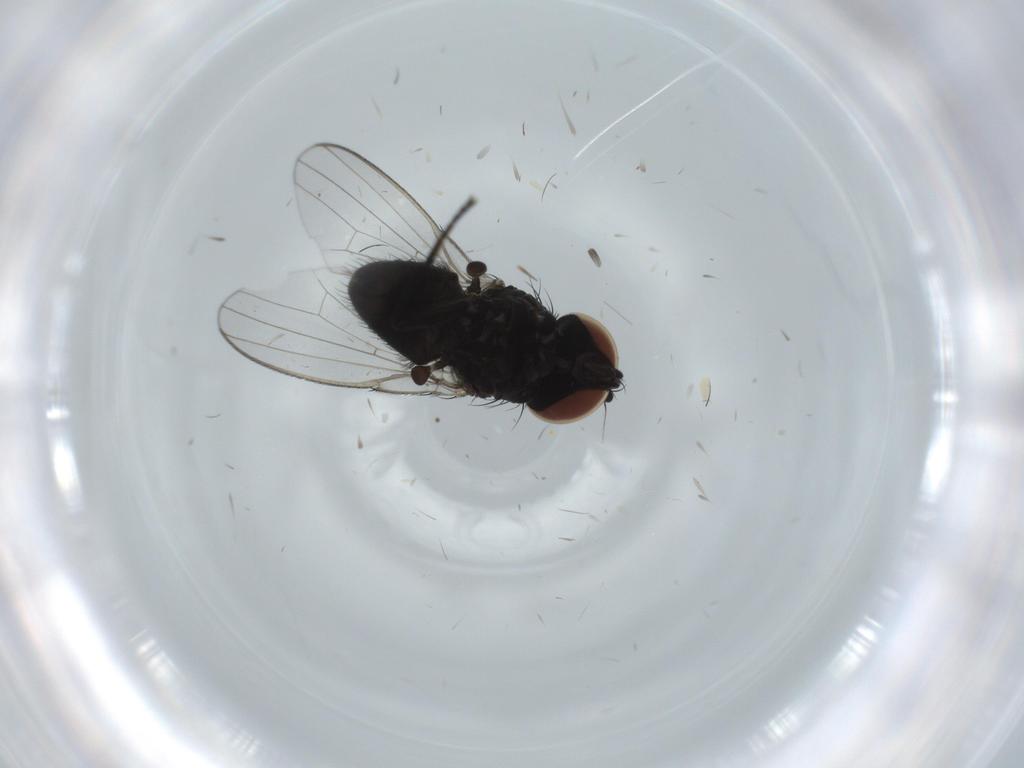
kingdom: Animalia
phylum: Arthropoda
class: Insecta
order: Diptera
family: Milichiidae
